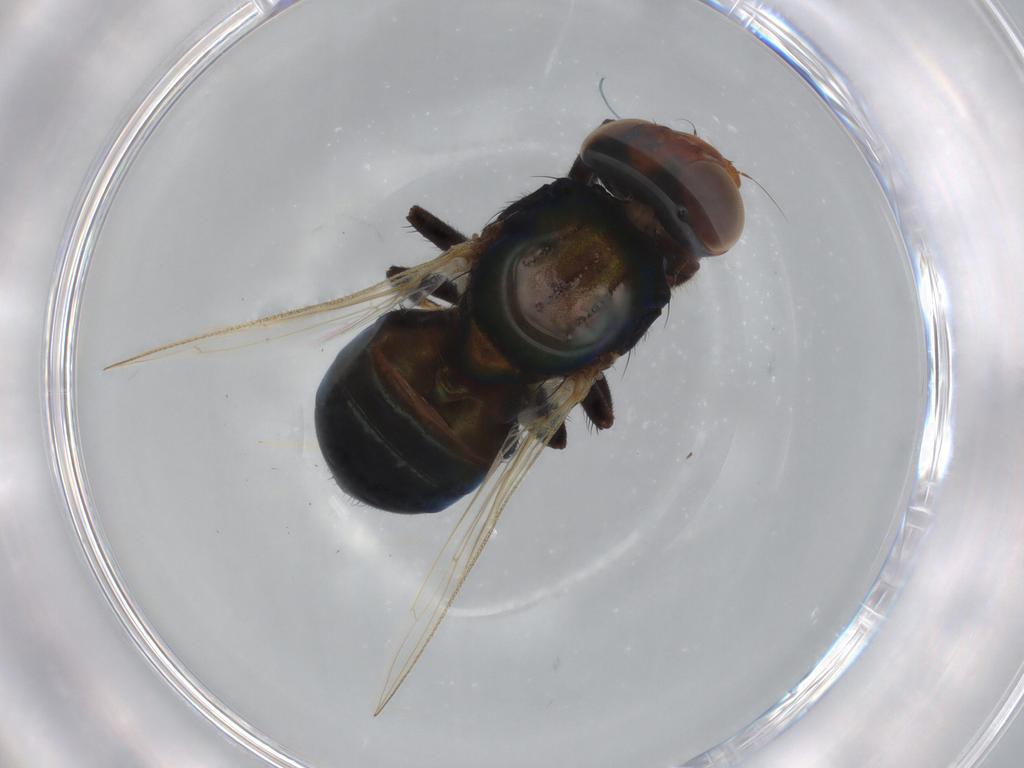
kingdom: Animalia
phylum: Arthropoda
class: Insecta
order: Diptera
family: Ulidiidae
